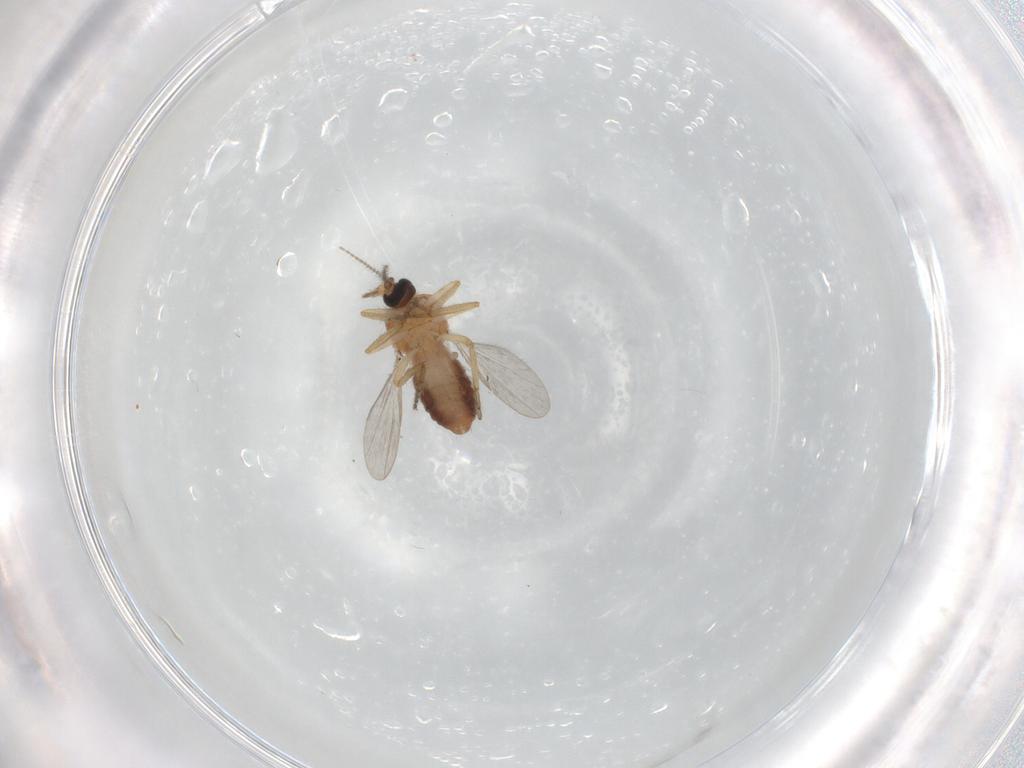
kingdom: Animalia
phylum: Arthropoda
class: Insecta
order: Diptera
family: Ceratopogonidae
